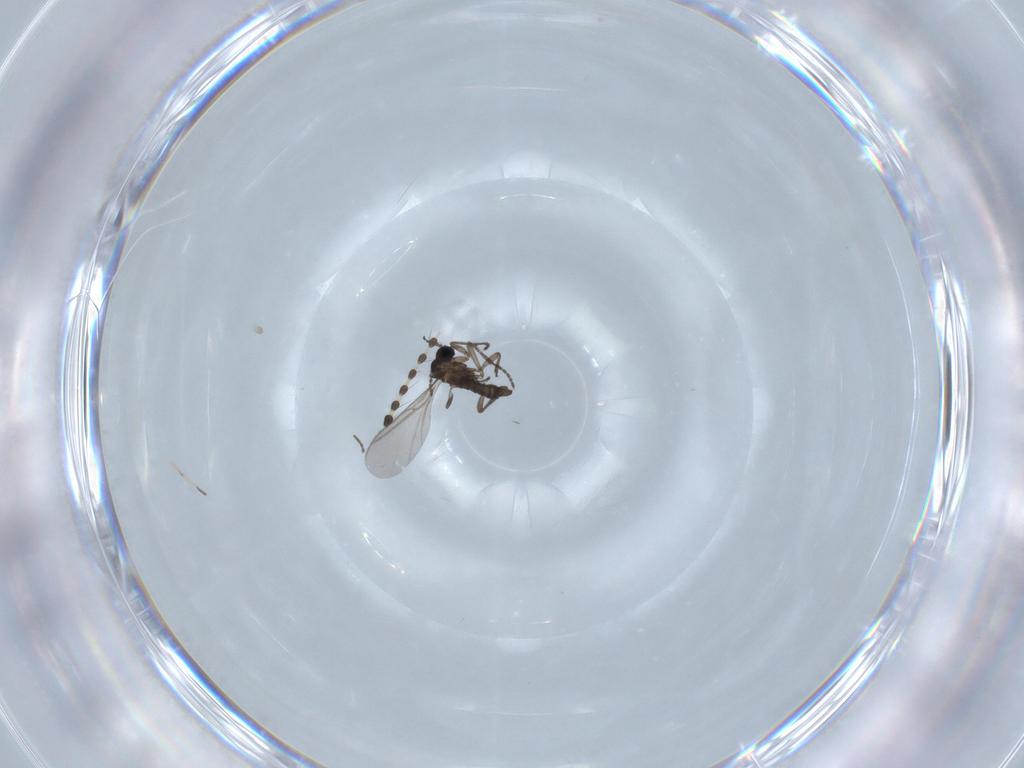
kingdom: Animalia
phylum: Arthropoda
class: Insecta
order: Diptera
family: Limoniidae
